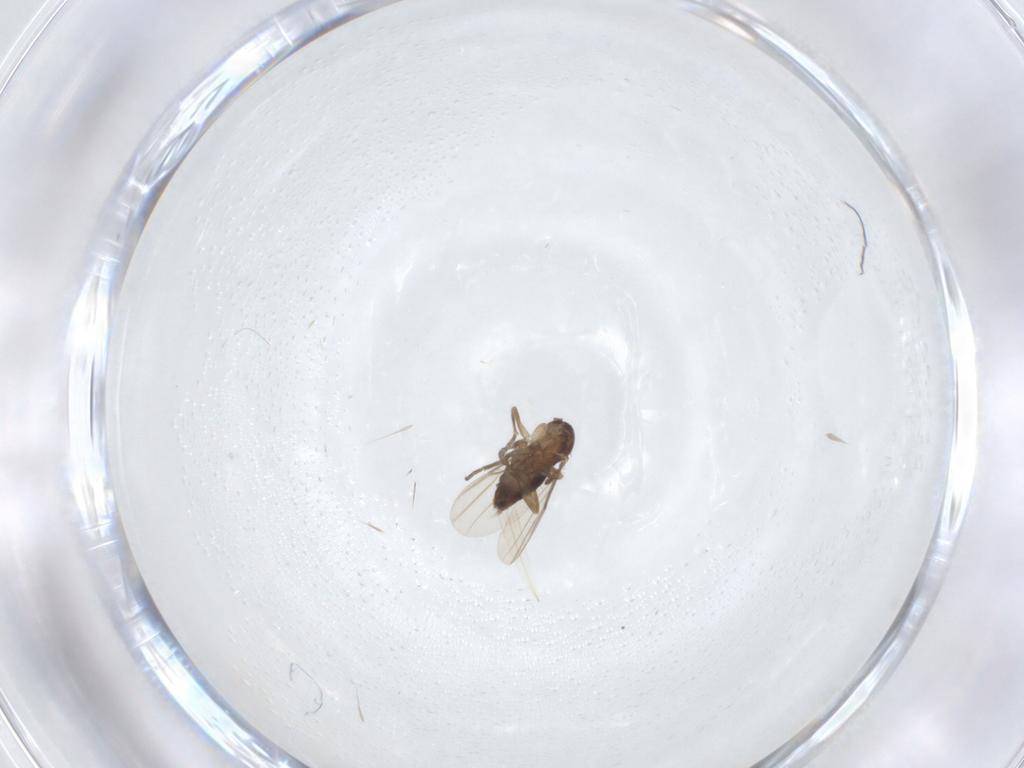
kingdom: Animalia
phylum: Arthropoda
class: Insecta
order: Diptera
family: Phoridae
